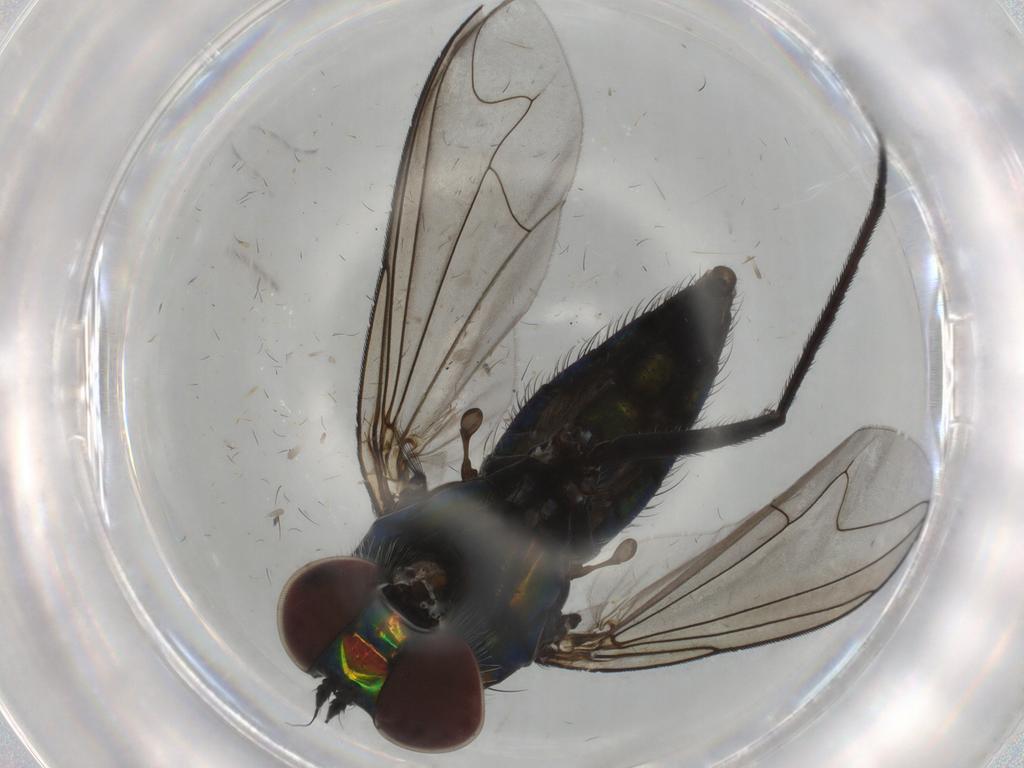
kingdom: Animalia
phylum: Arthropoda
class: Insecta
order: Diptera
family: Dolichopodidae
